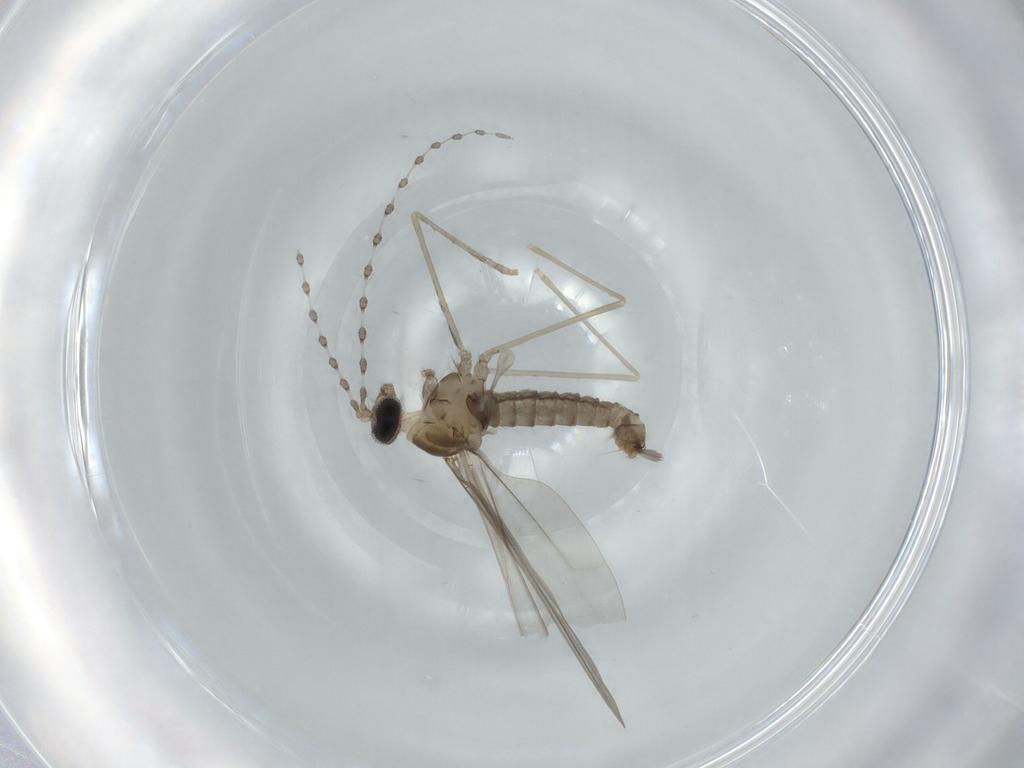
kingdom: Animalia
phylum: Arthropoda
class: Insecta
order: Diptera
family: Cecidomyiidae
